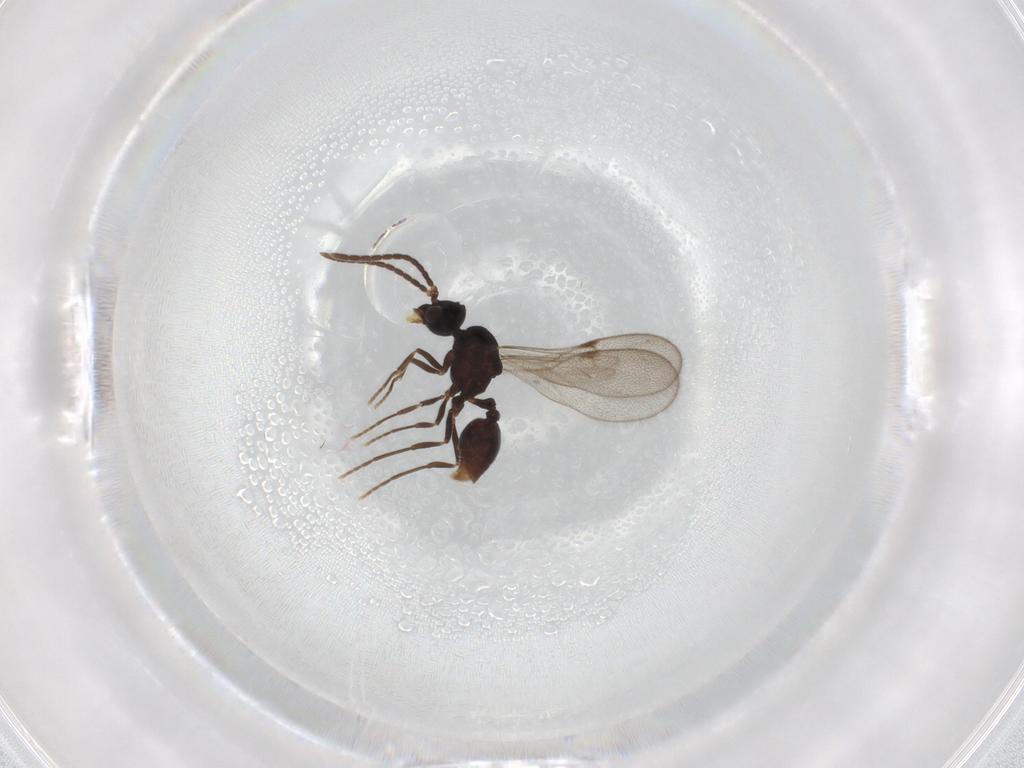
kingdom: Animalia
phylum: Arthropoda
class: Insecta
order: Hymenoptera
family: Formicidae
